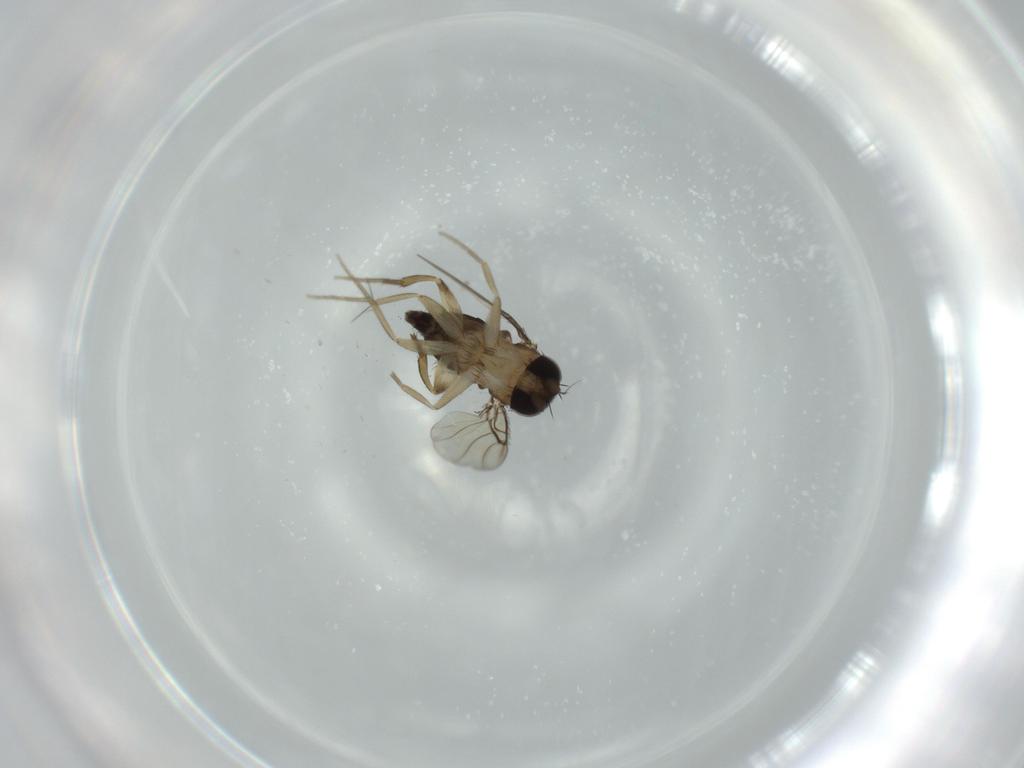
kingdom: Animalia
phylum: Arthropoda
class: Insecta
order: Diptera
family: Phoridae
